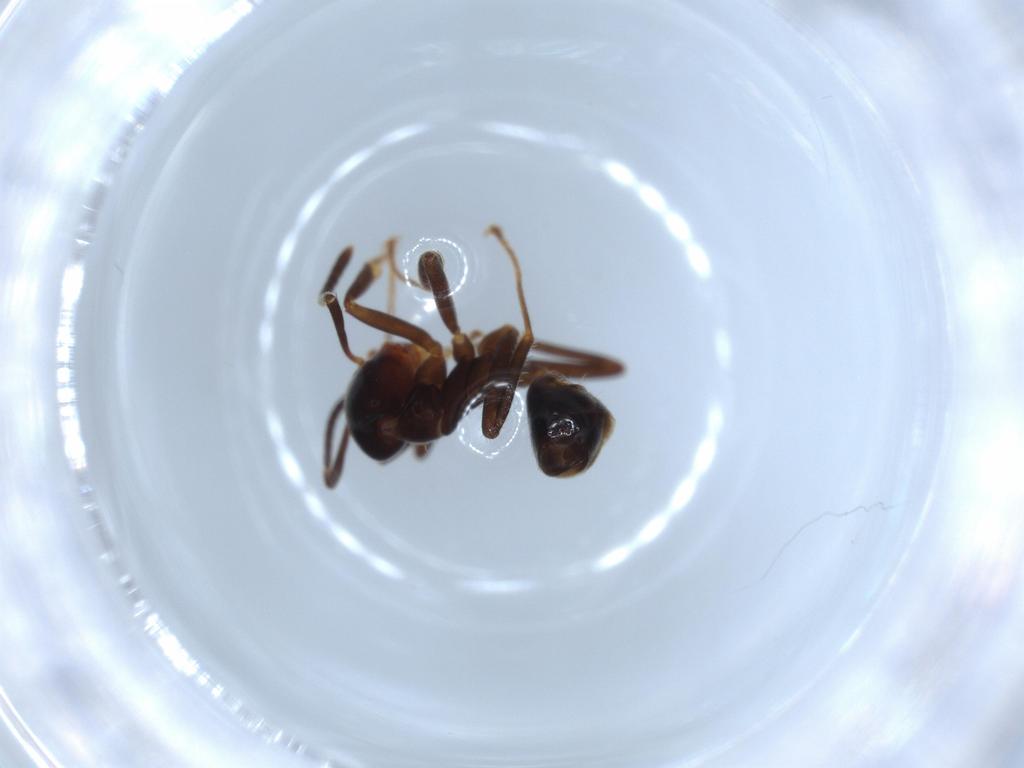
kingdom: Animalia
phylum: Arthropoda
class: Insecta
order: Hymenoptera
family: Formicidae
